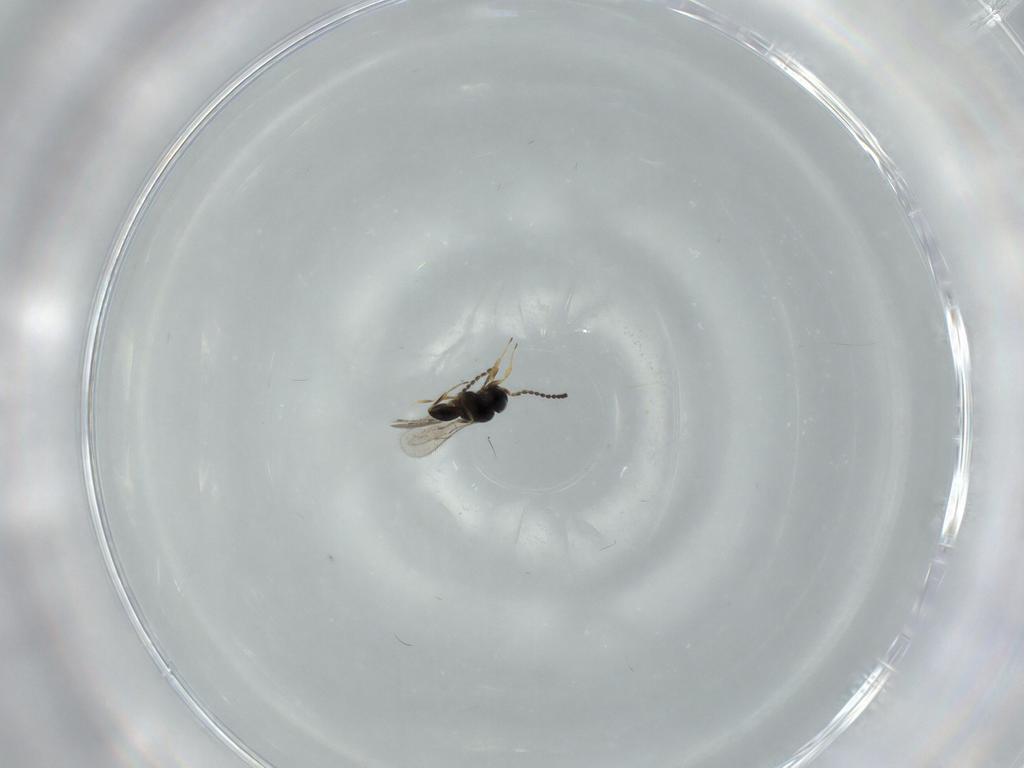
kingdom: Animalia
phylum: Arthropoda
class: Insecta
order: Hymenoptera
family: Scelionidae
